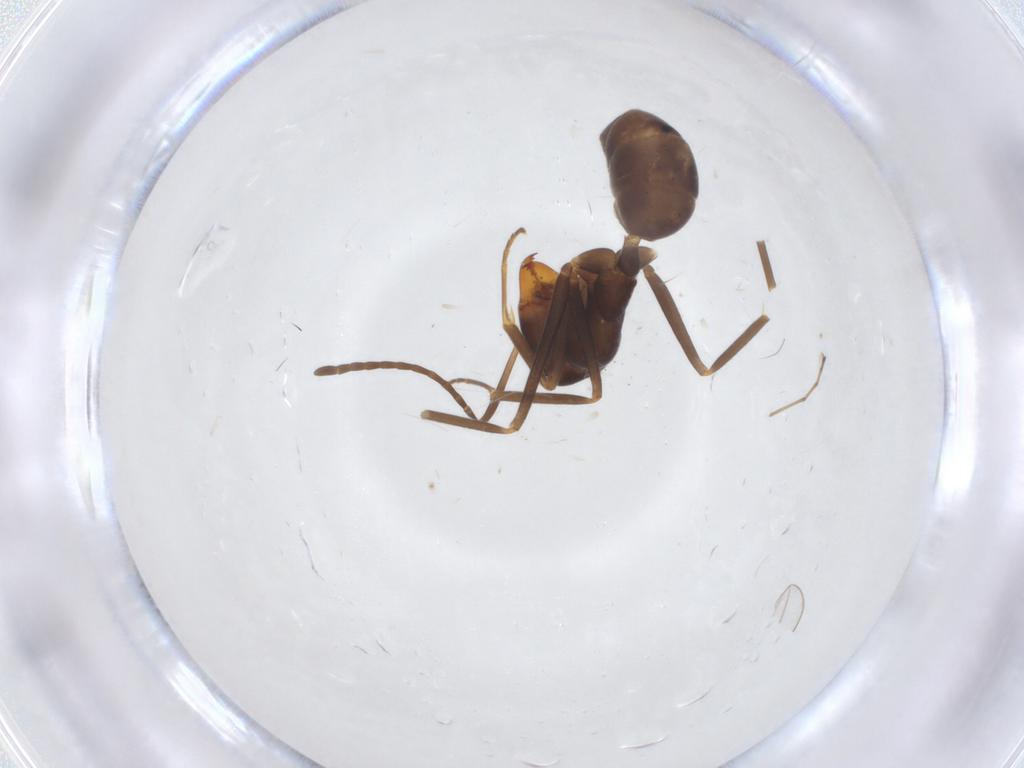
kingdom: Animalia
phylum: Arthropoda
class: Insecta
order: Hymenoptera
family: Formicidae
